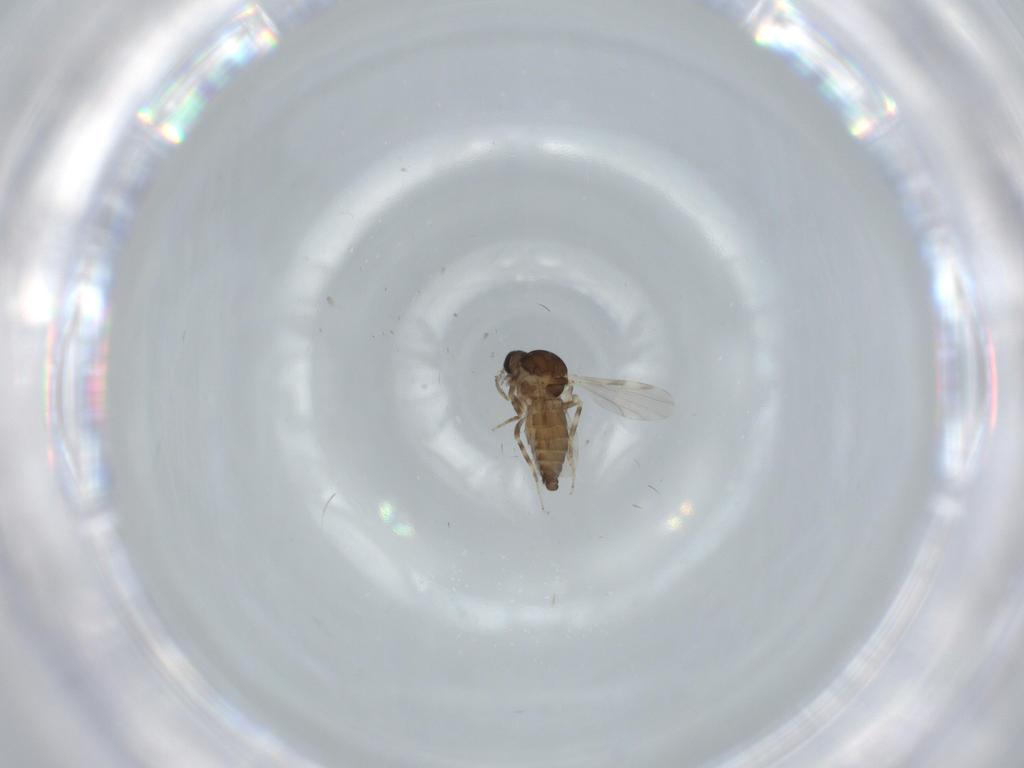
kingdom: Animalia
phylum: Arthropoda
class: Insecta
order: Diptera
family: Ceratopogonidae
